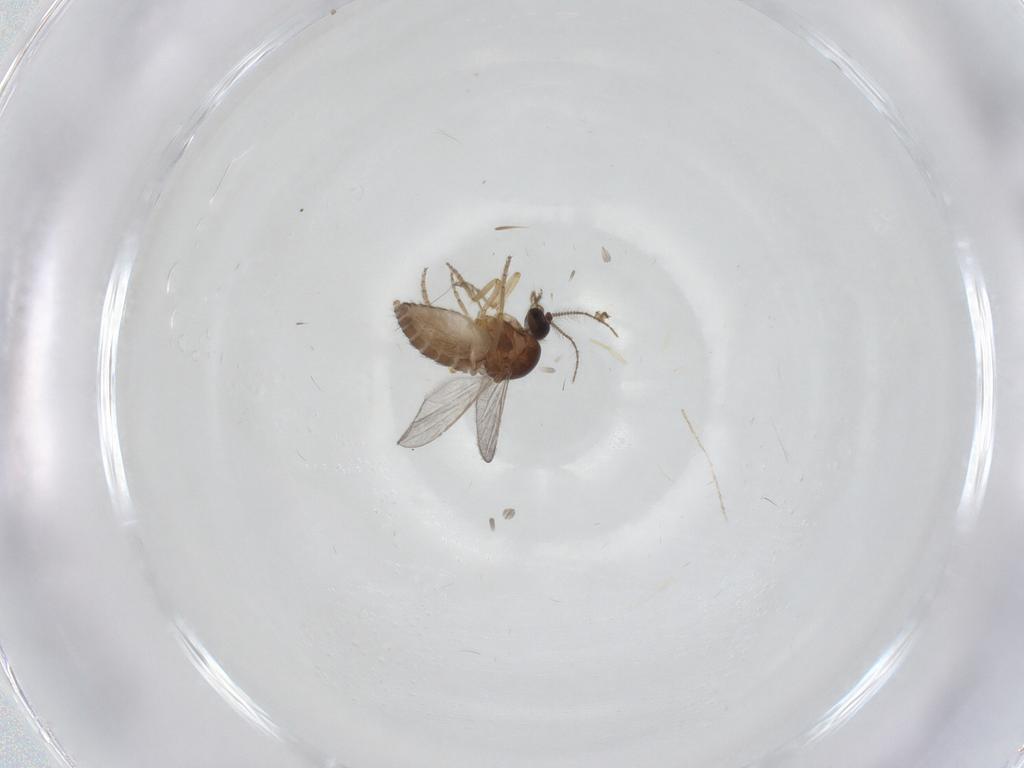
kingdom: Animalia
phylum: Arthropoda
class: Insecta
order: Diptera
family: Ceratopogonidae
